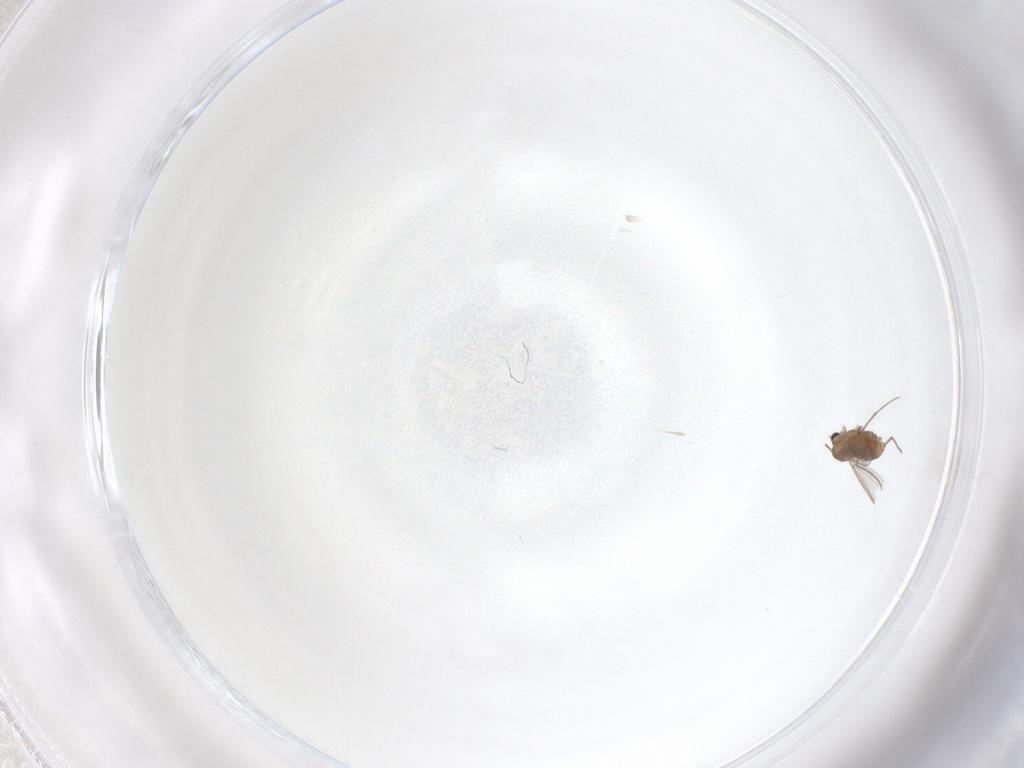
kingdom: Animalia
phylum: Arthropoda
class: Insecta
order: Diptera
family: Chironomidae
